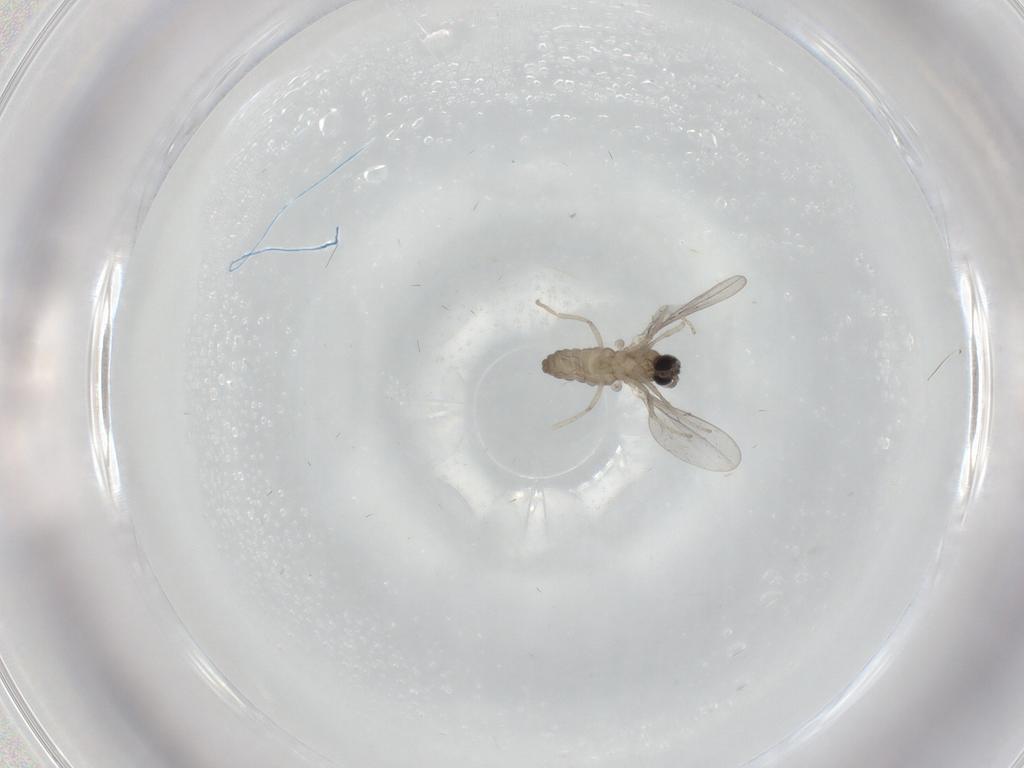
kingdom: Animalia
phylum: Arthropoda
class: Insecta
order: Diptera
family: Cecidomyiidae
